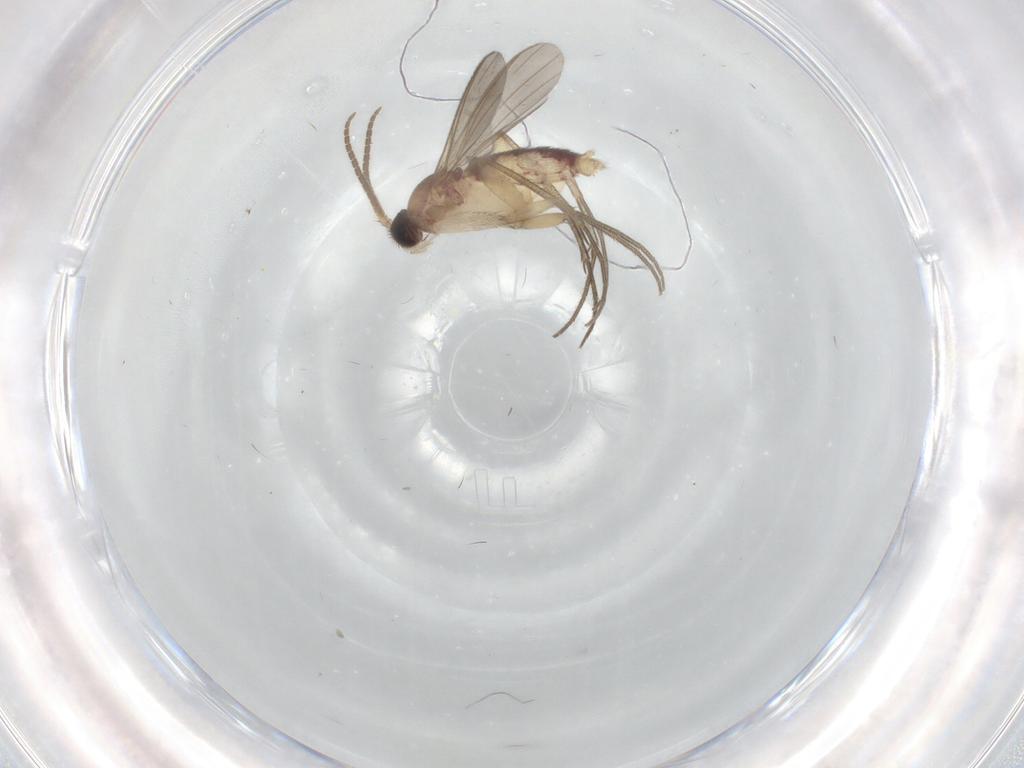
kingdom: Animalia
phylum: Arthropoda
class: Insecta
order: Diptera
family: Mycetophilidae
